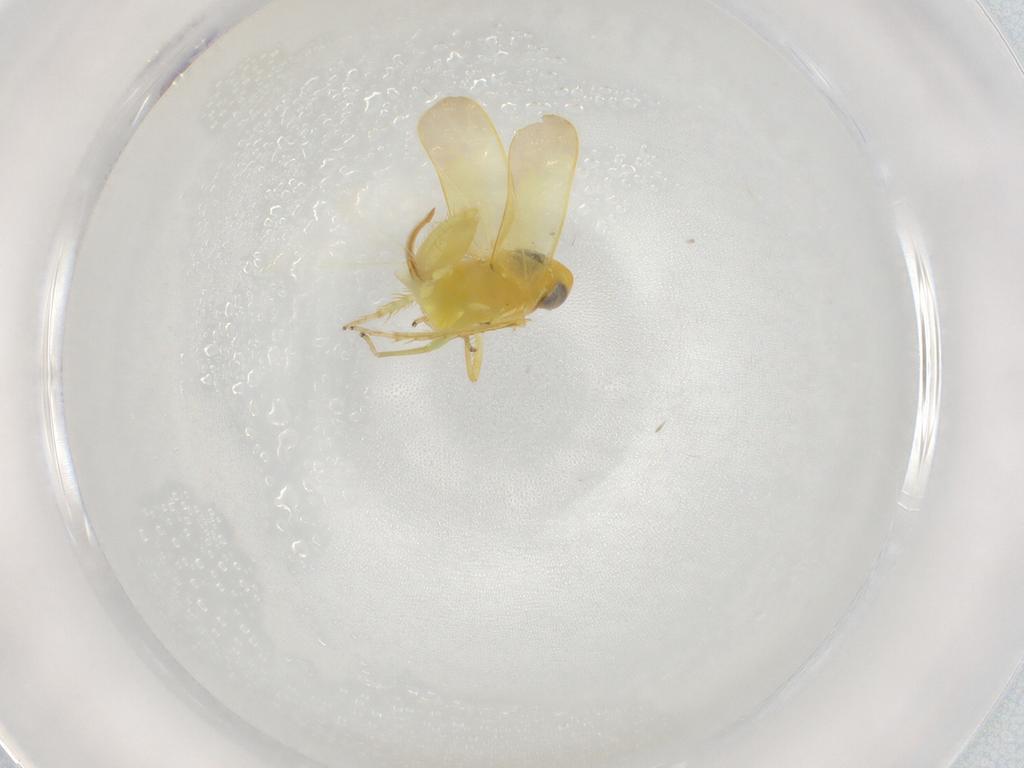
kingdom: Animalia
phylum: Arthropoda
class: Insecta
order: Hemiptera
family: Cicadellidae
